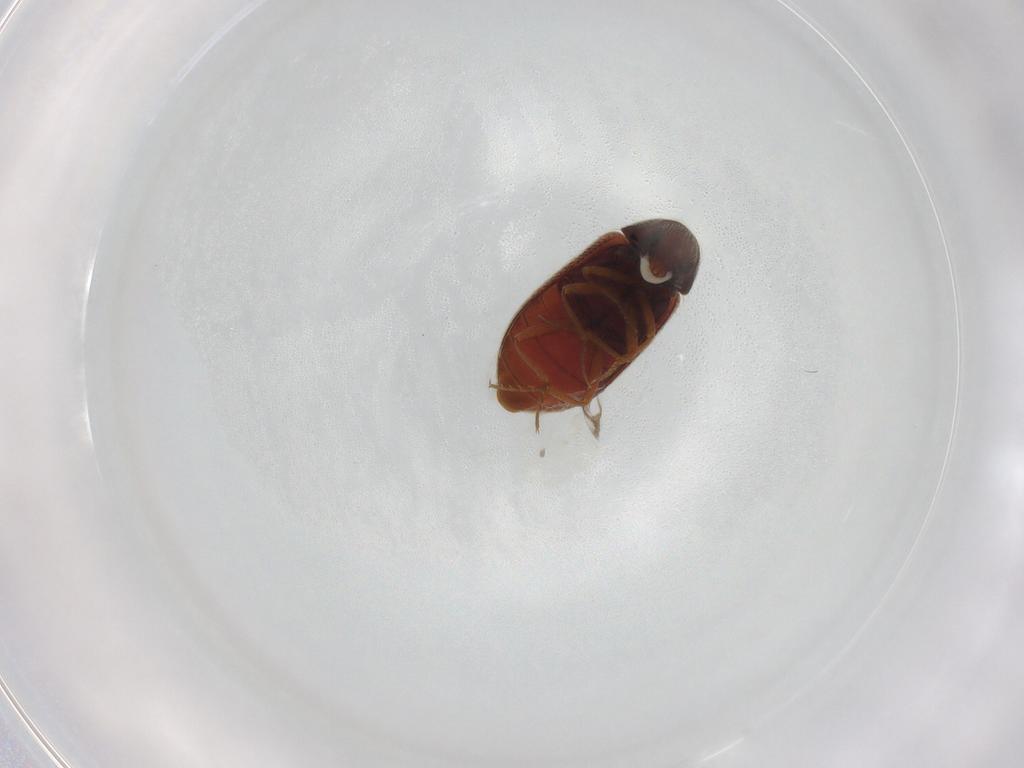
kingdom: Animalia
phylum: Arthropoda
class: Insecta
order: Coleoptera
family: Rhadalidae
